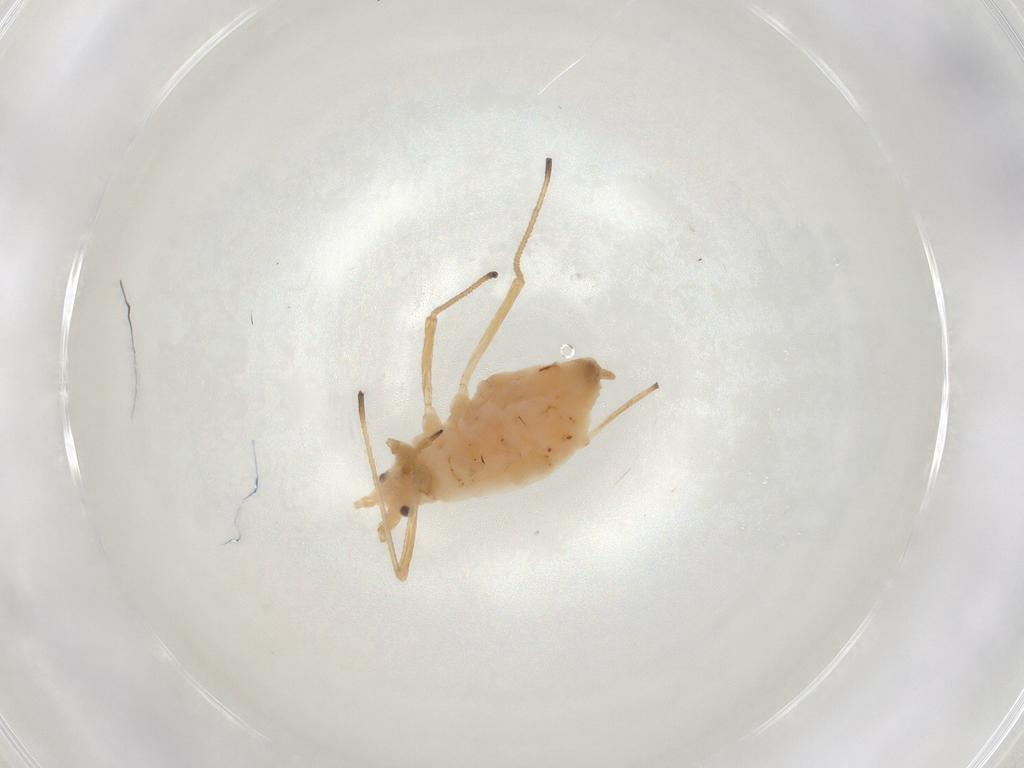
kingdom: Animalia
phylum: Arthropoda
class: Insecta
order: Hemiptera
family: Aphididae
